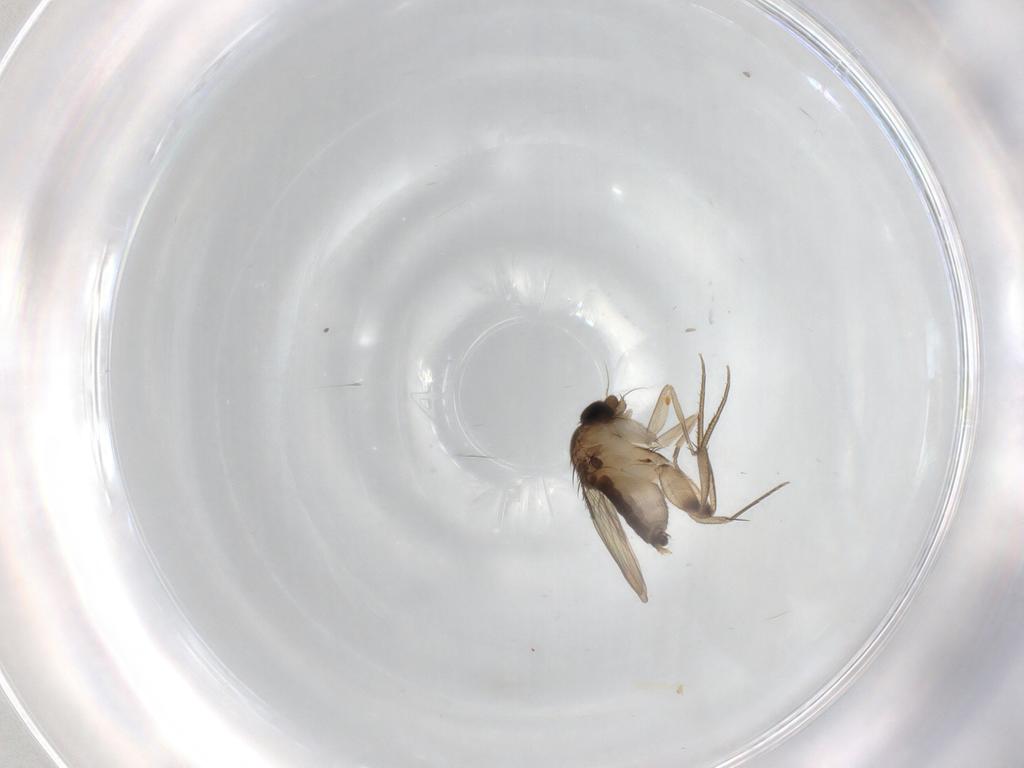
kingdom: Animalia
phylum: Arthropoda
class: Insecta
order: Diptera
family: Phoridae
